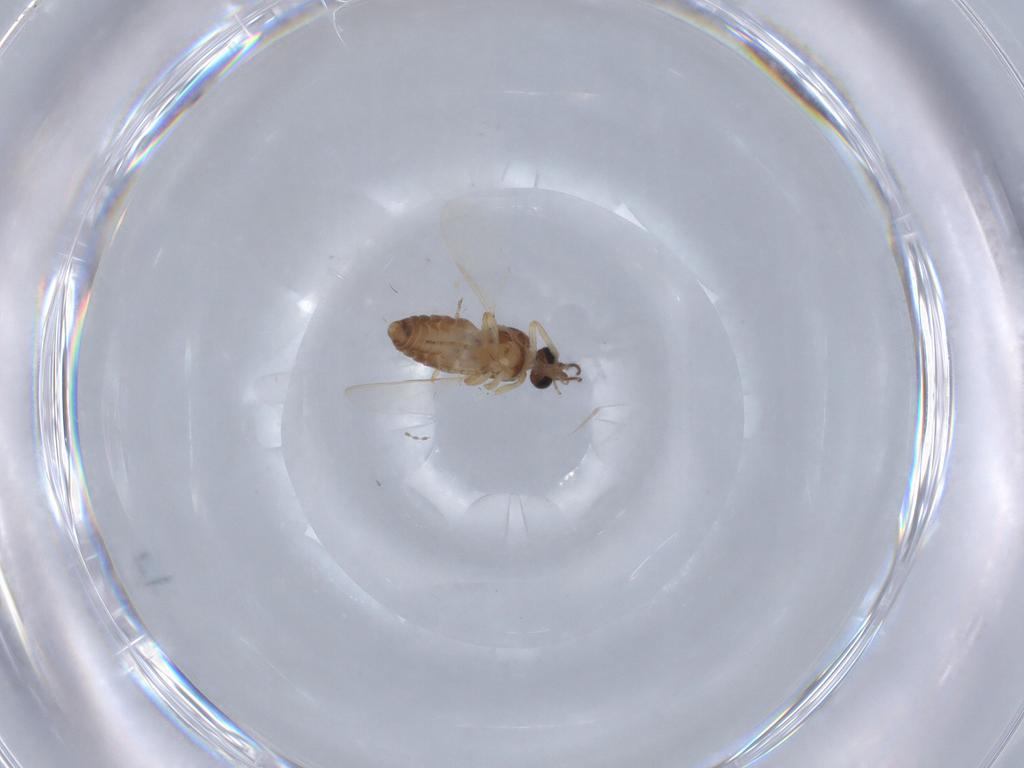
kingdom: Animalia
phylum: Arthropoda
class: Insecta
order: Diptera
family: Ceratopogonidae
